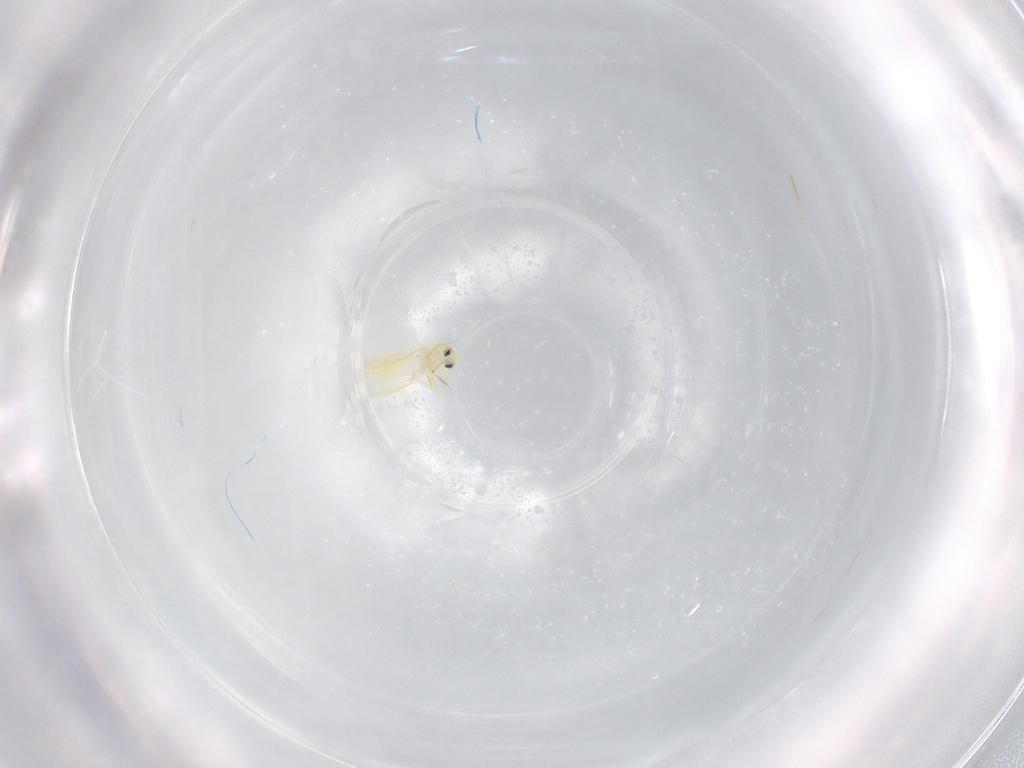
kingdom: Animalia
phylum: Arthropoda
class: Insecta
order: Hemiptera
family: Aleyrodidae
